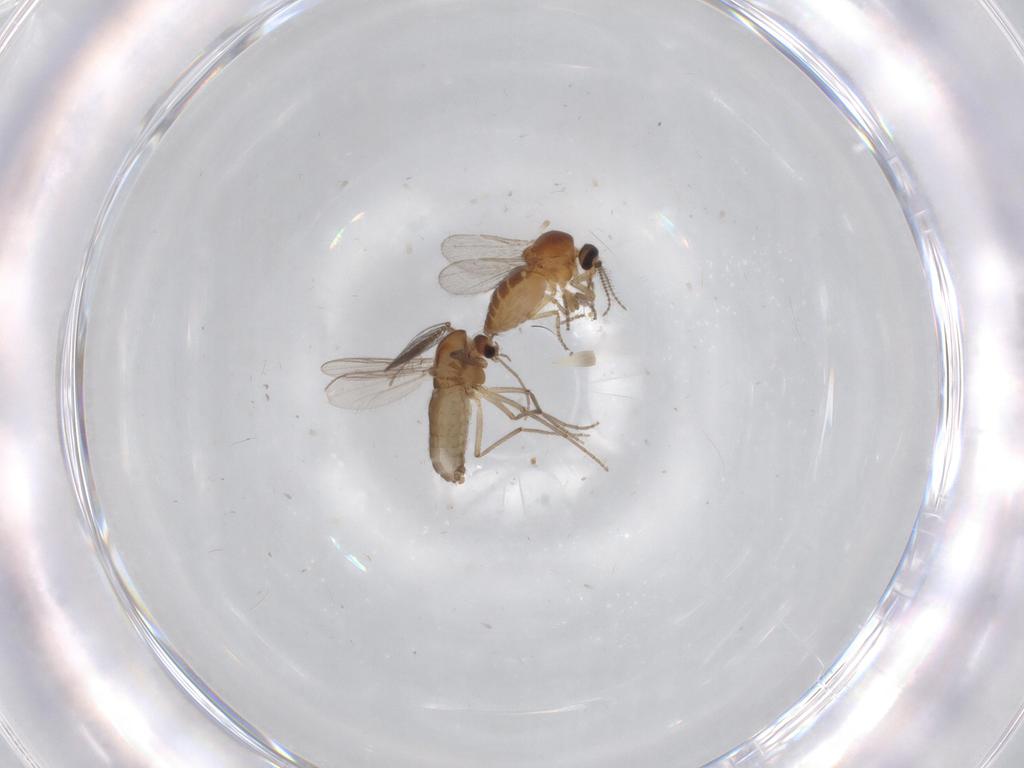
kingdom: Animalia
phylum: Arthropoda
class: Insecta
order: Diptera
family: Chironomidae
